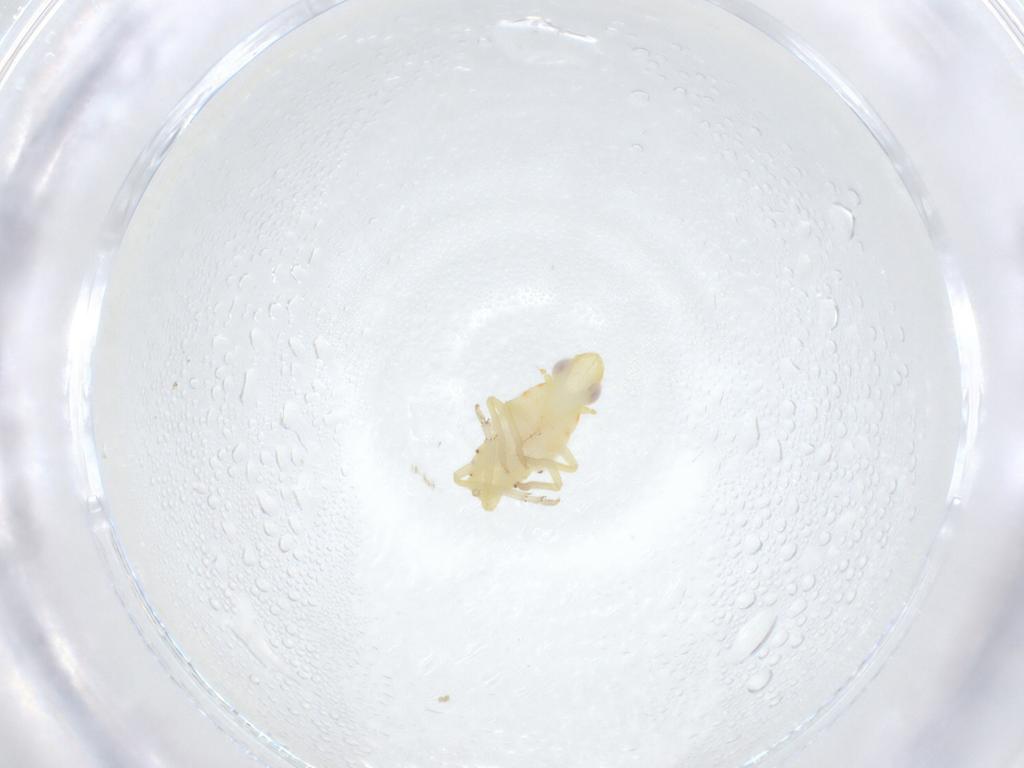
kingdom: Animalia
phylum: Arthropoda
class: Insecta
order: Hemiptera
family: Tropiduchidae
